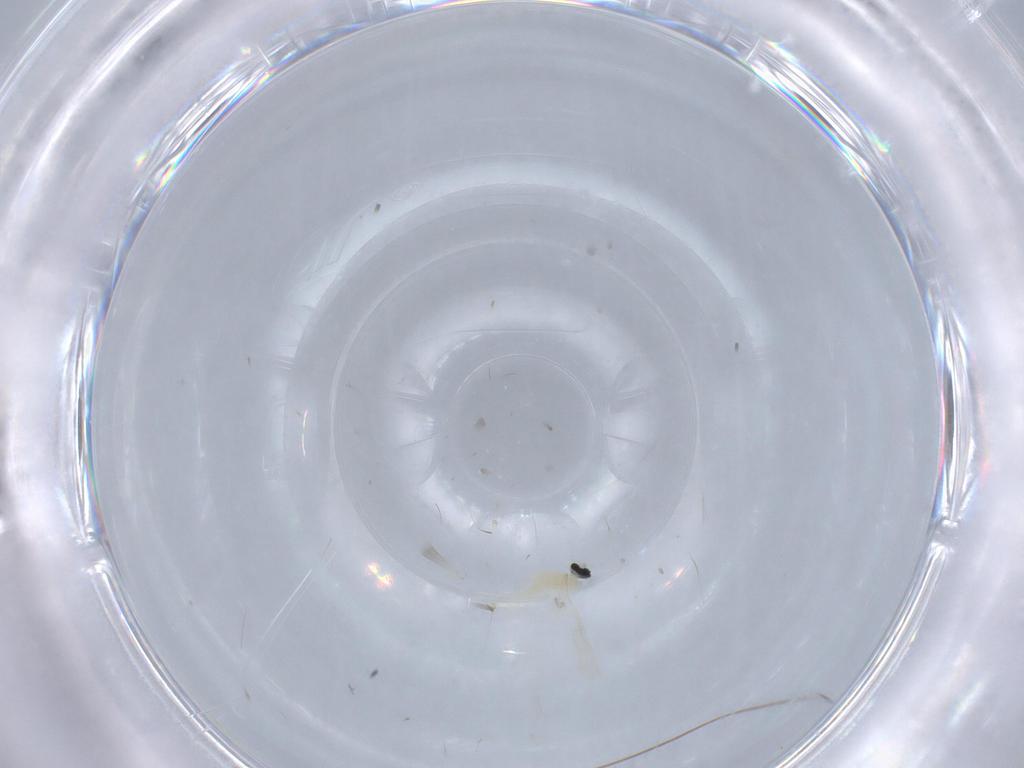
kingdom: Animalia
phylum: Arthropoda
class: Insecta
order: Diptera
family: Cecidomyiidae
